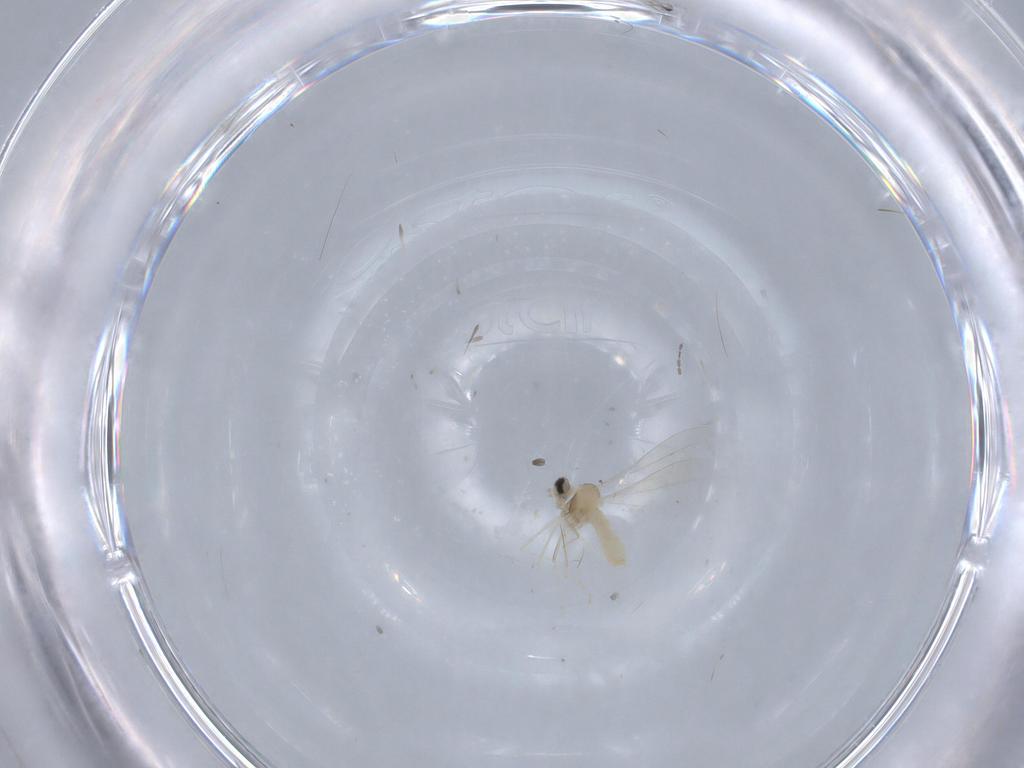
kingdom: Animalia
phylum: Arthropoda
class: Insecta
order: Diptera
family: Cecidomyiidae
